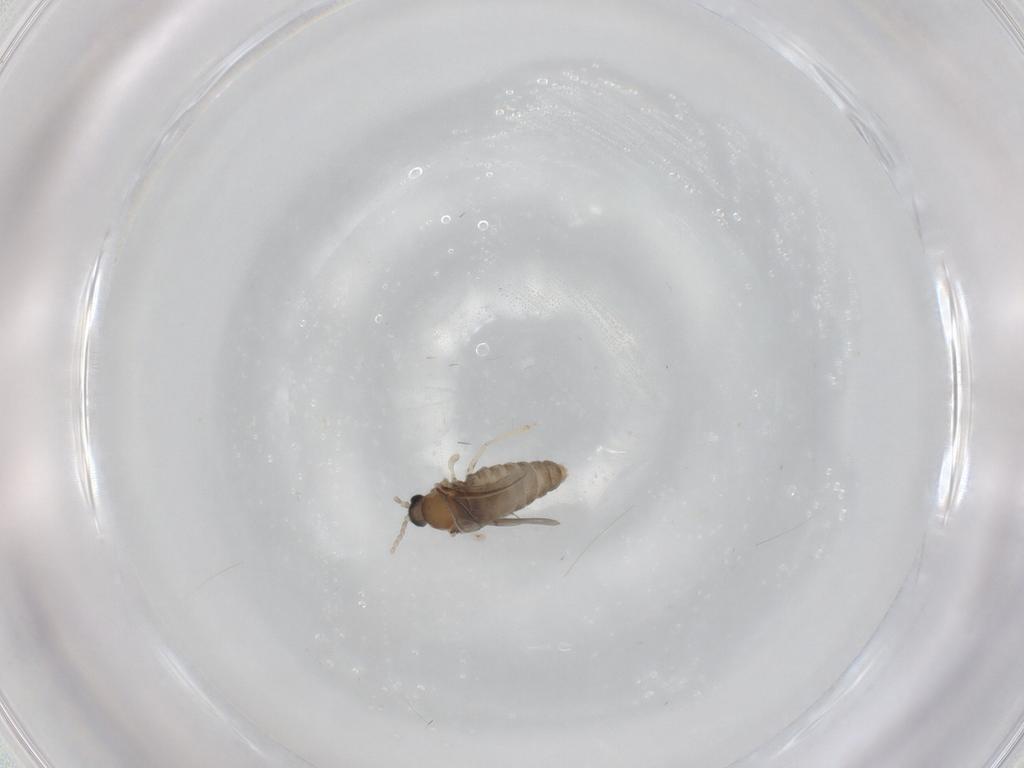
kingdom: Animalia
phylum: Arthropoda
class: Insecta
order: Diptera
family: Cecidomyiidae
